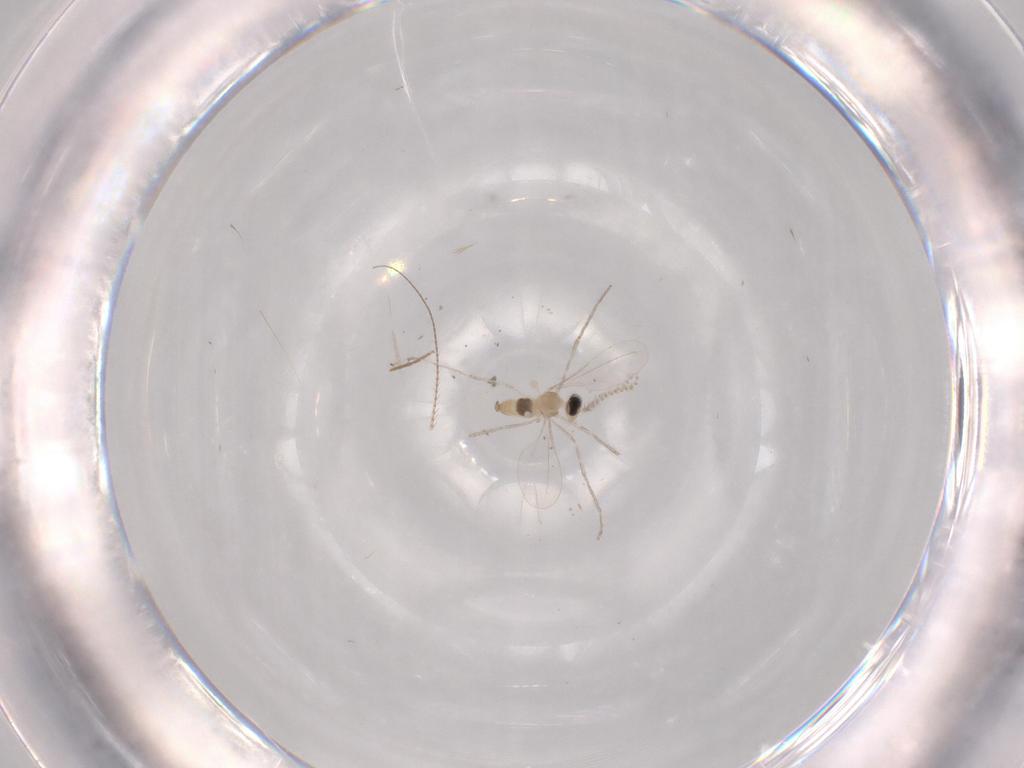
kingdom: Animalia
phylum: Arthropoda
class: Insecta
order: Diptera
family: Cecidomyiidae
